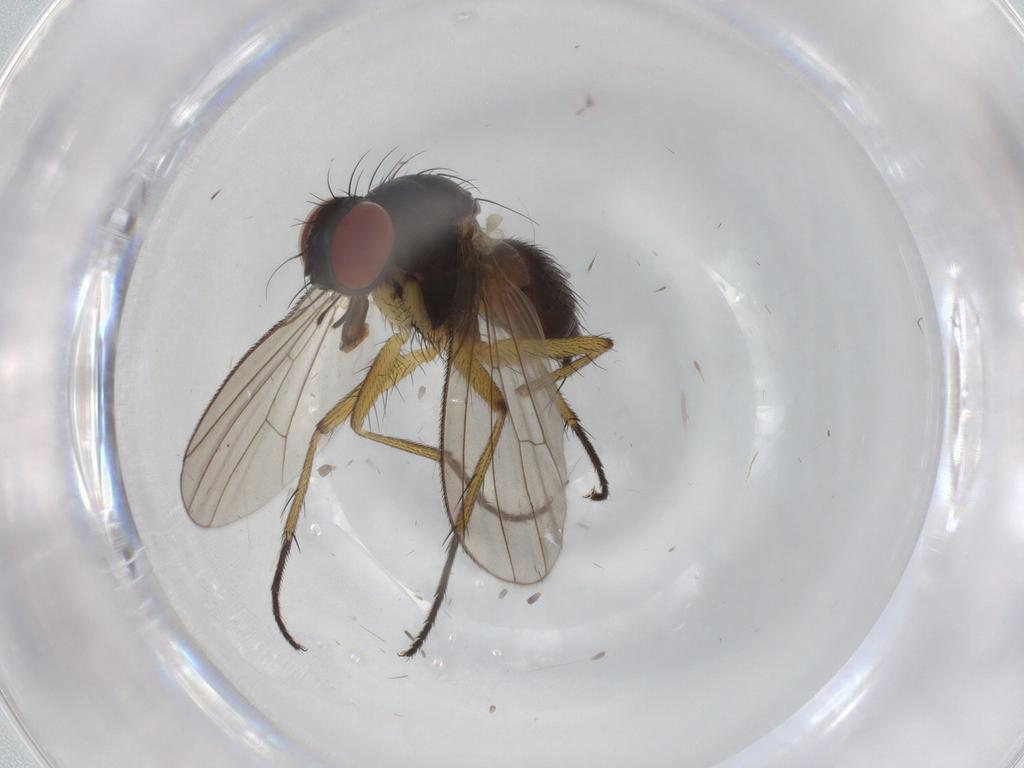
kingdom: Animalia
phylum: Arthropoda
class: Insecta
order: Diptera
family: Muscidae
